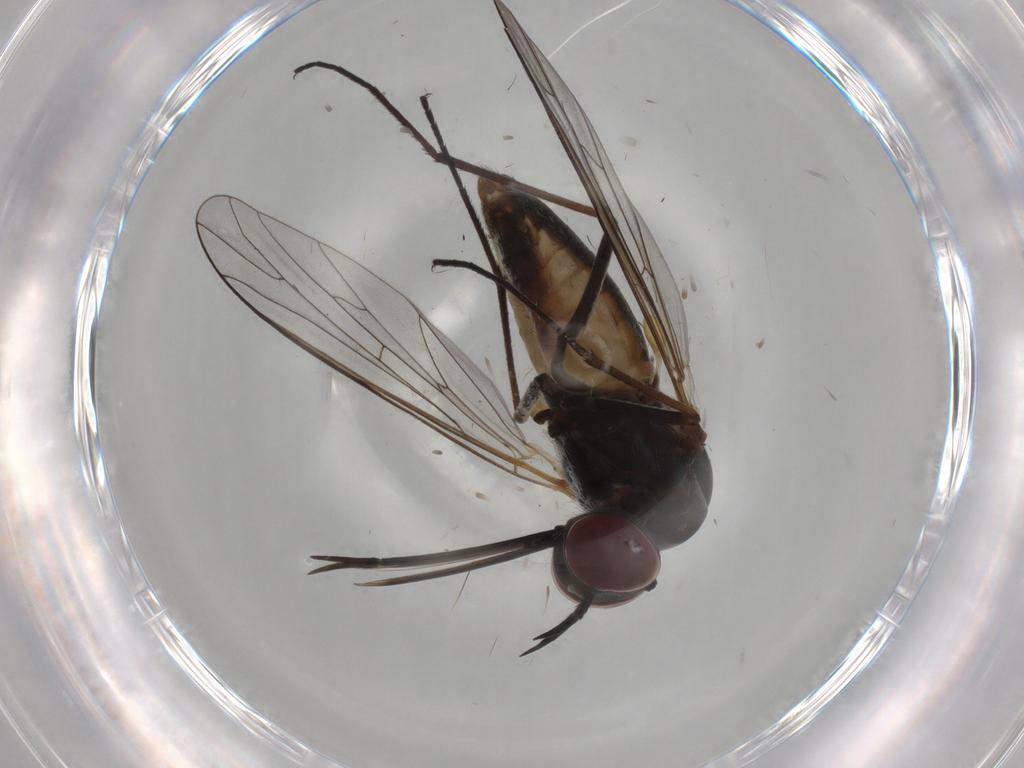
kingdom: Animalia
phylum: Arthropoda
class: Insecta
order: Diptera
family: Bombyliidae
